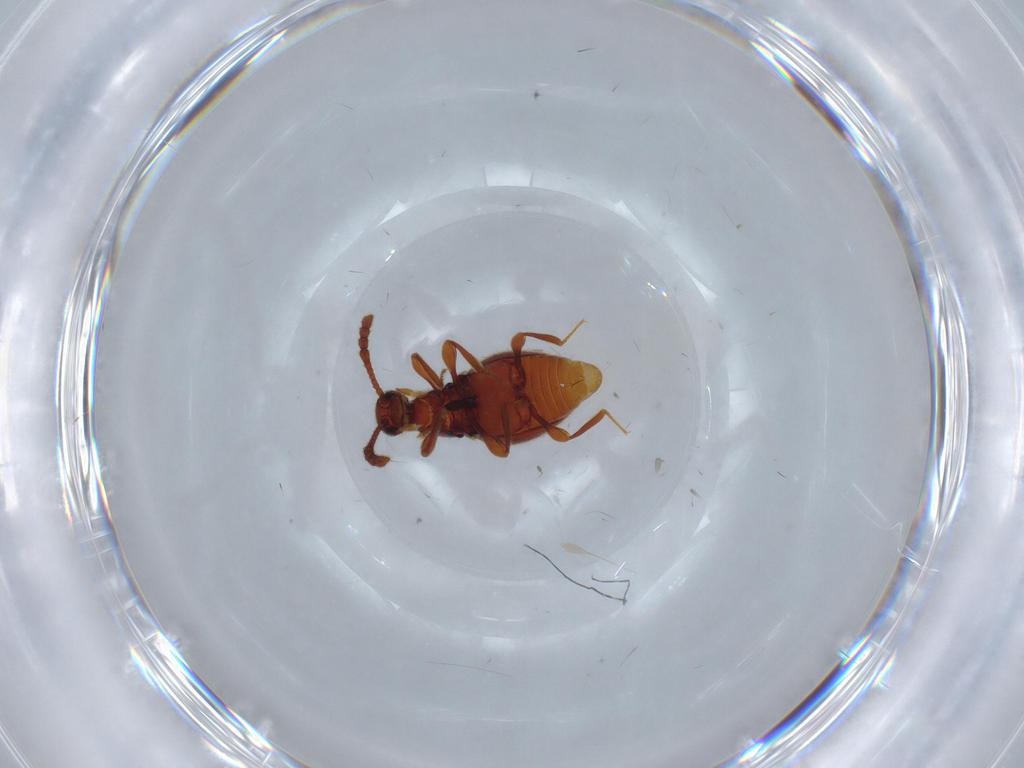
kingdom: Animalia
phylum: Arthropoda
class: Insecta
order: Coleoptera
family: Staphylinidae
